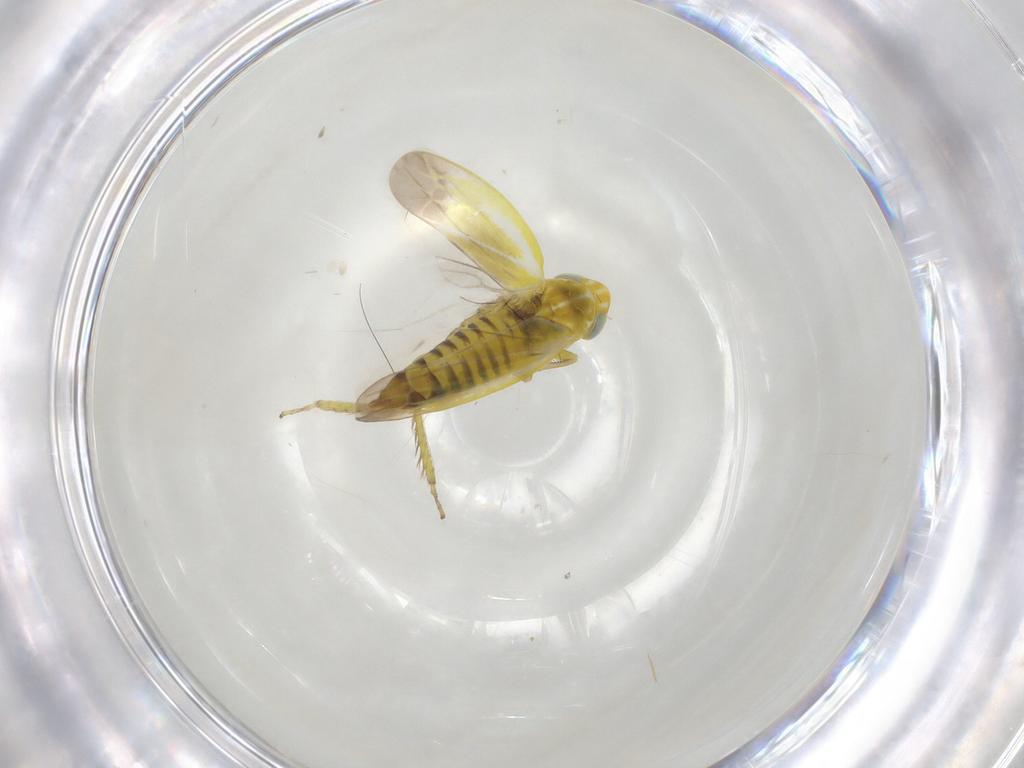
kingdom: Animalia
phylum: Arthropoda
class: Insecta
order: Hemiptera
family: Cicadellidae
